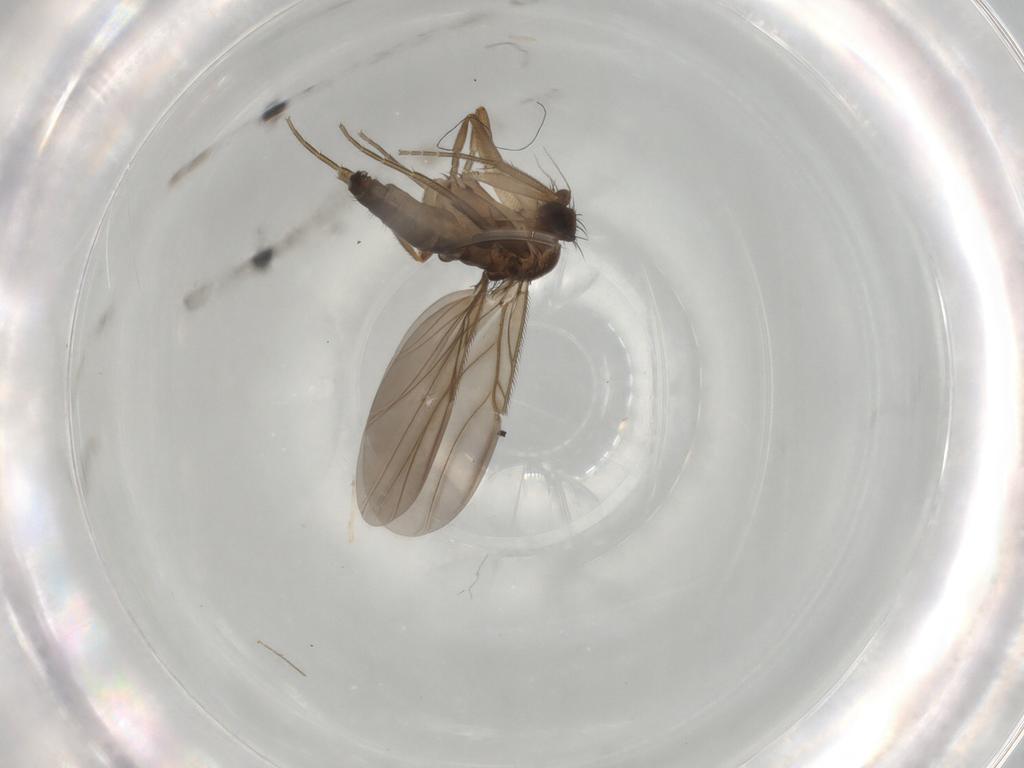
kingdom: Animalia
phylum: Arthropoda
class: Insecta
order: Diptera
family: Phoridae
